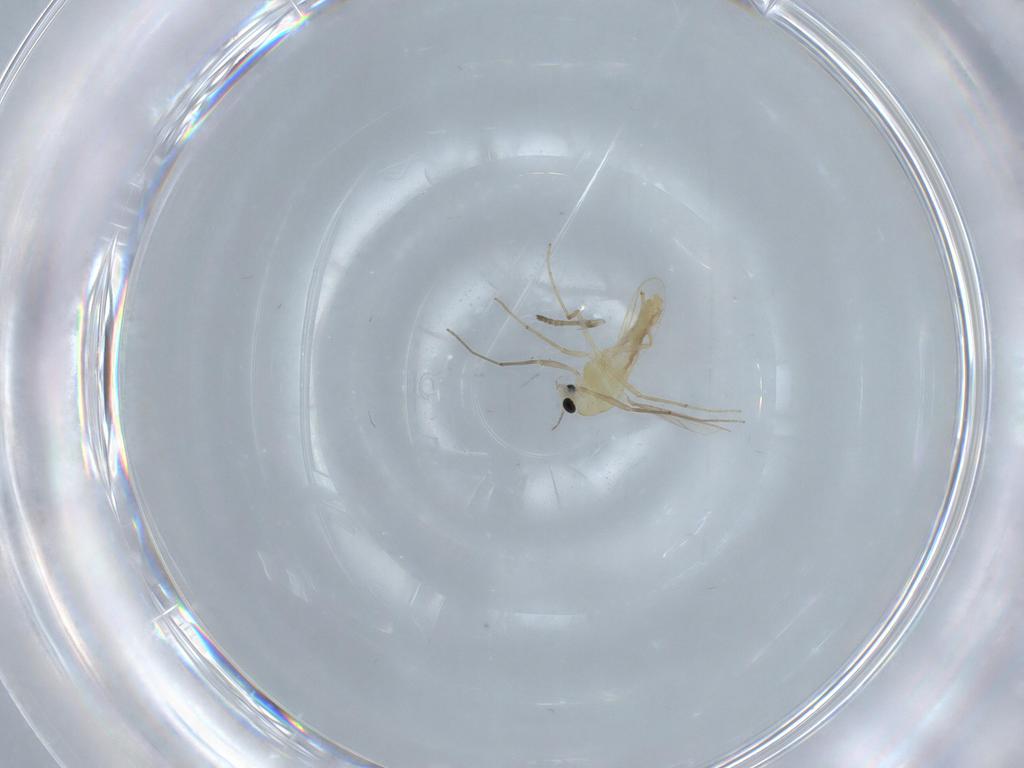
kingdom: Animalia
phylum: Arthropoda
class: Insecta
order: Diptera
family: Chironomidae
